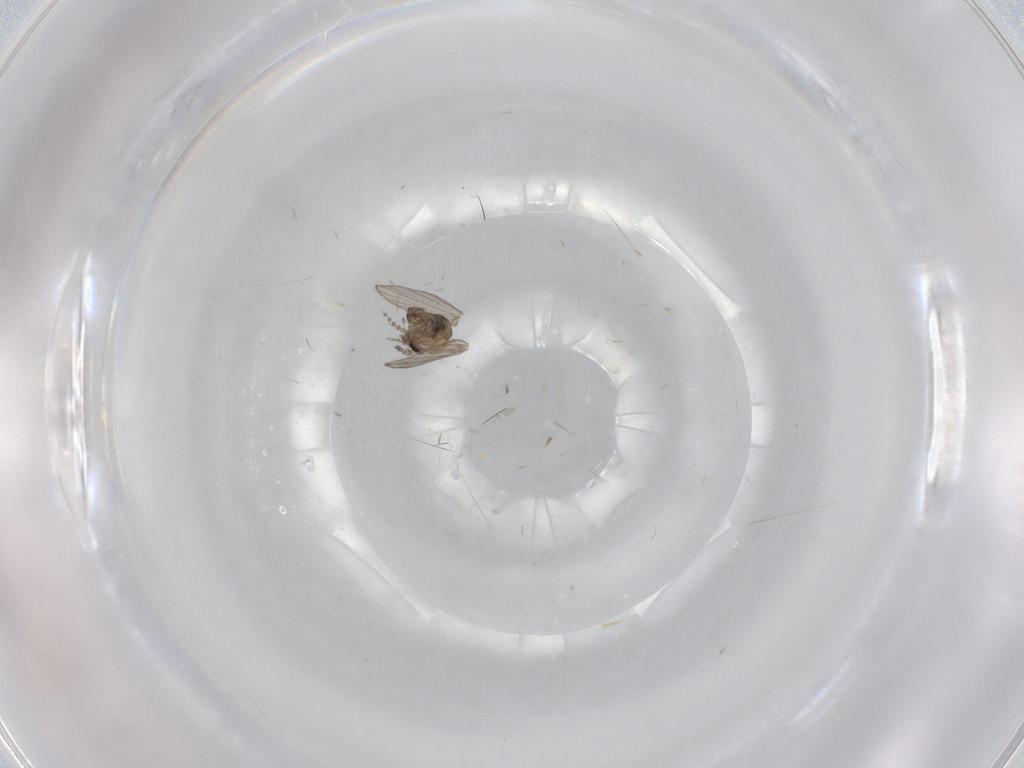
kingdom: Animalia
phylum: Arthropoda
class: Insecta
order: Diptera
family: Psychodidae
